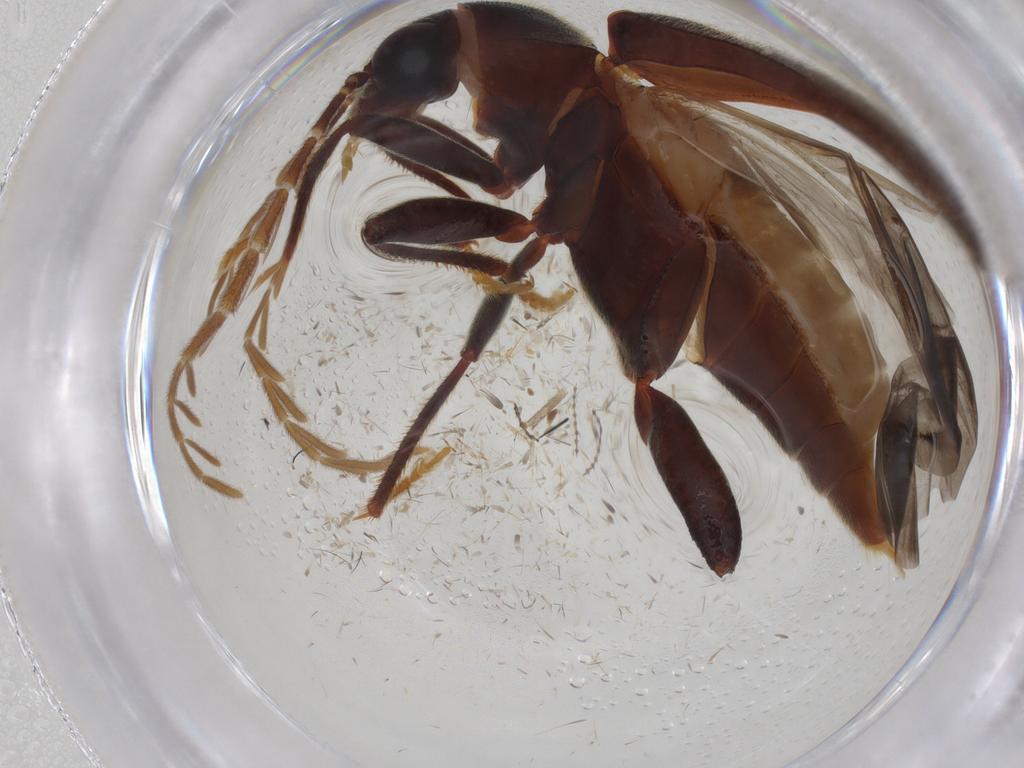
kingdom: Animalia
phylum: Arthropoda
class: Insecta
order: Coleoptera
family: Ptilodactylidae
